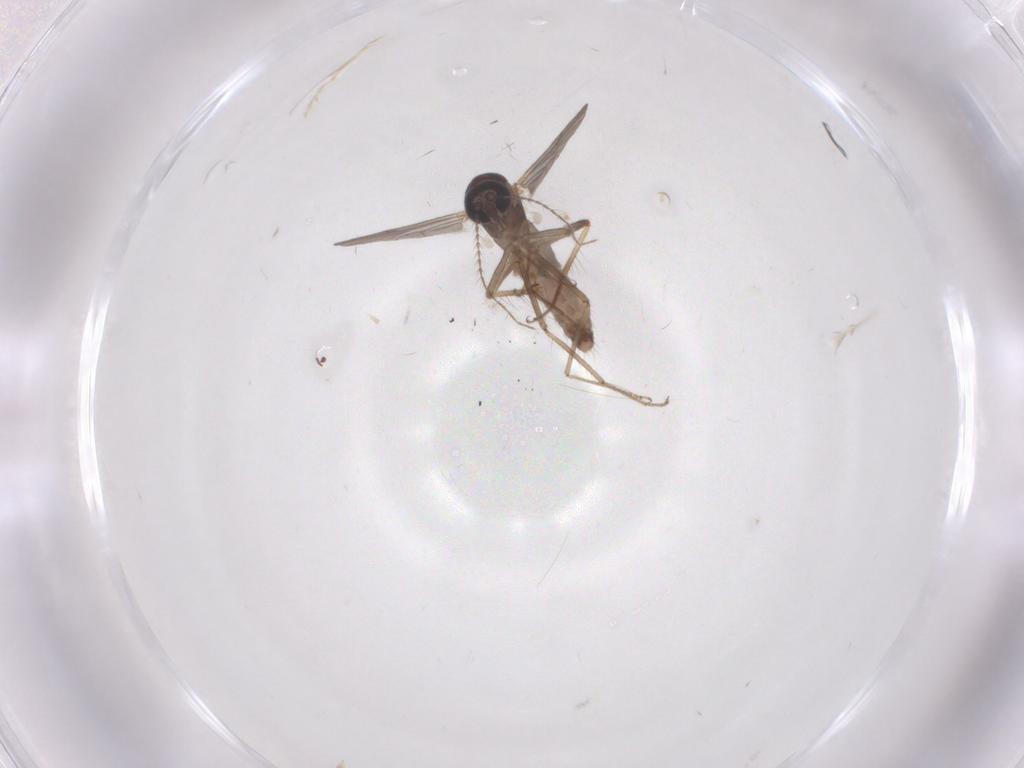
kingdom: Animalia
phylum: Arthropoda
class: Insecta
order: Diptera
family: Ceratopogonidae
